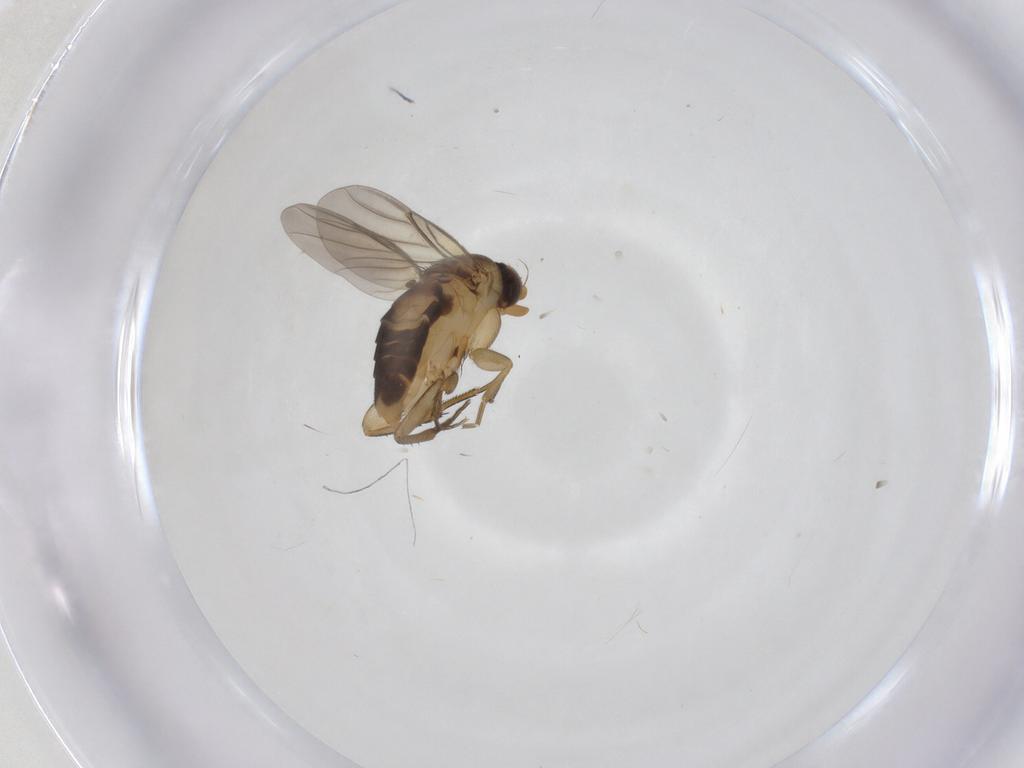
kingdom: Animalia
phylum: Arthropoda
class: Insecta
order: Diptera
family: Phoridae
